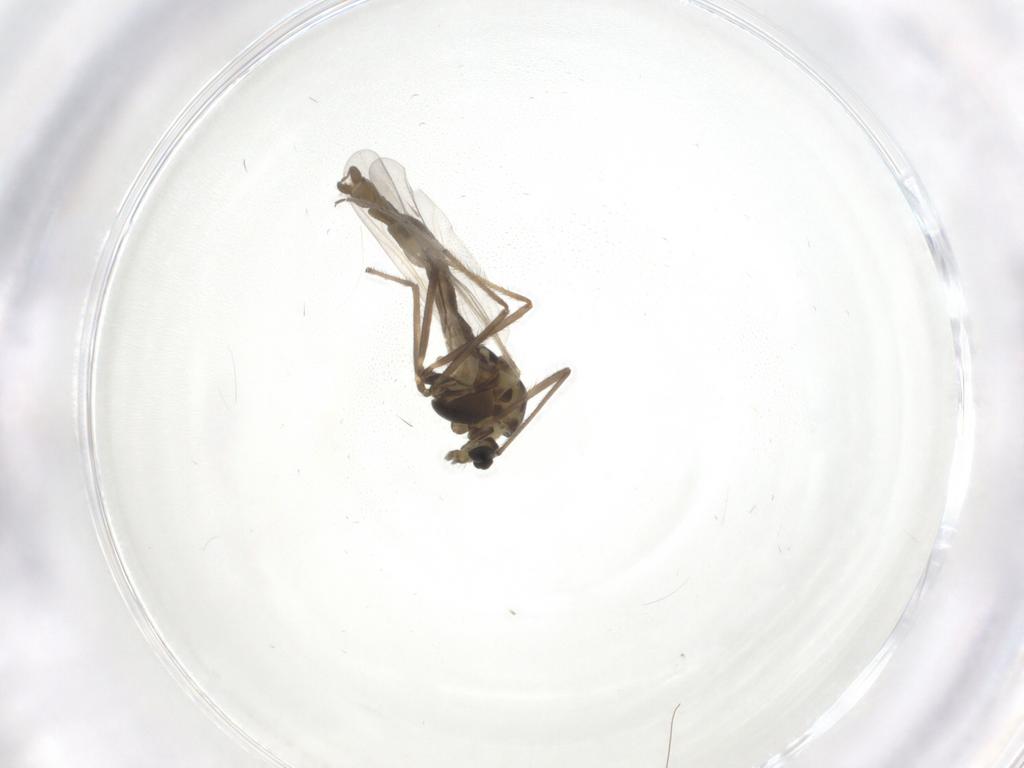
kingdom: Animalia
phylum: Arthropoda
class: Insecta
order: Diptera
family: Chironomidae
